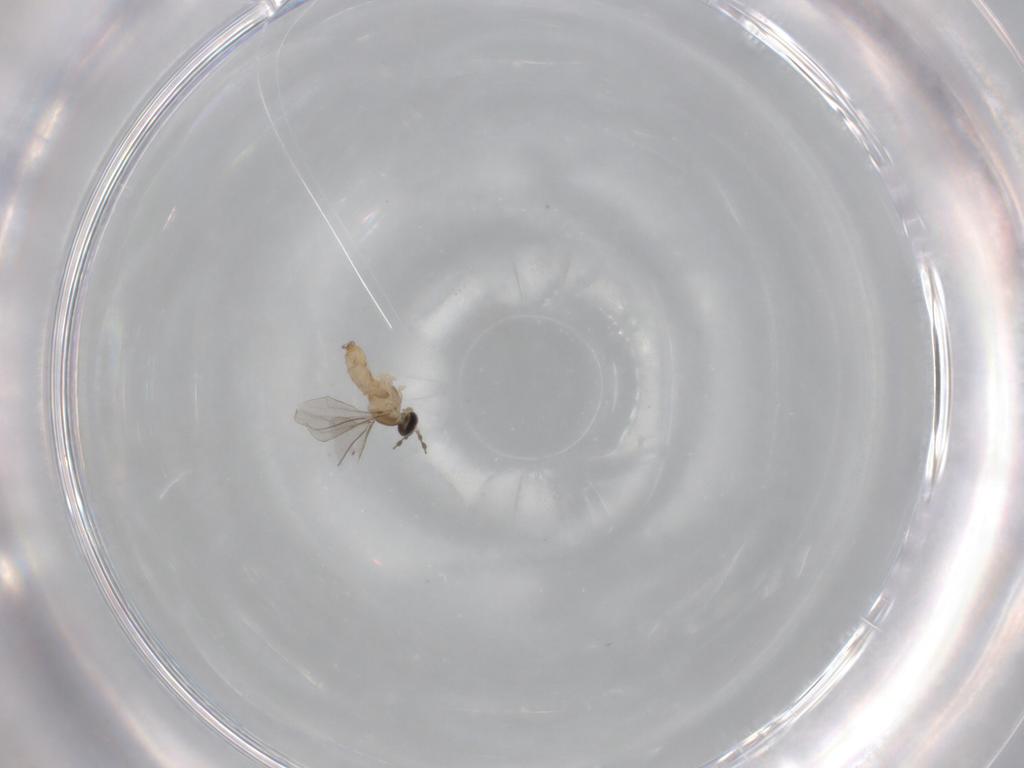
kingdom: Animalia
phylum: Arthropoda
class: Insecta
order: Diptera
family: Cecidomyiidae
